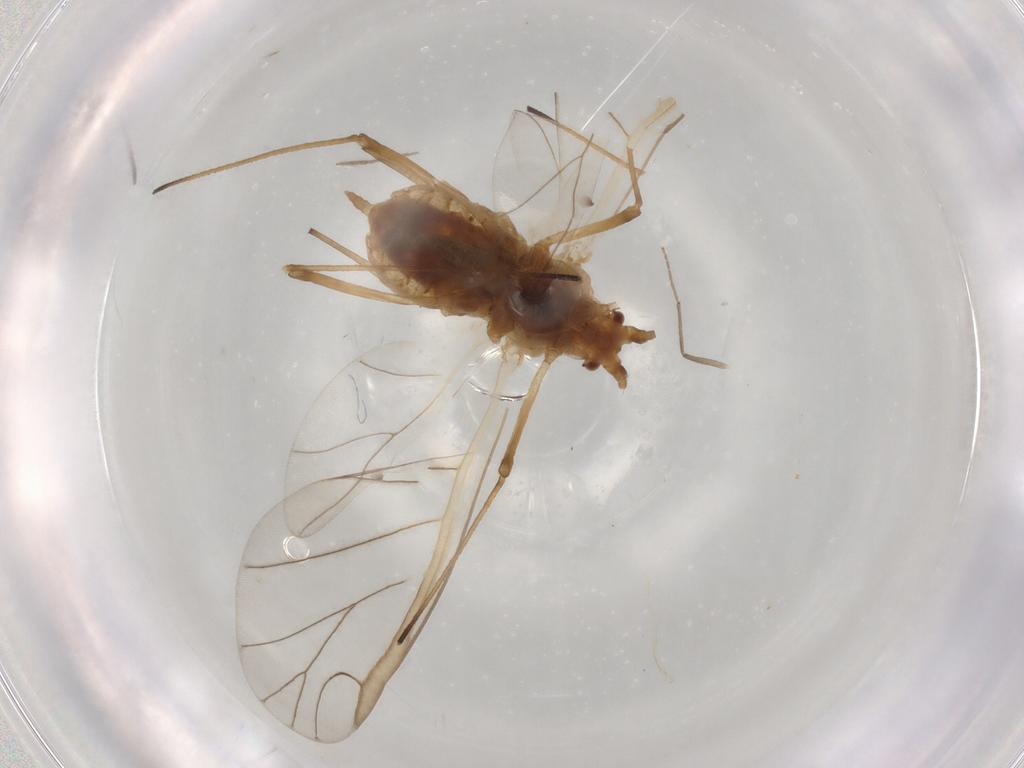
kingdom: Animalia
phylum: Arthropoda
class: Insecta
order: Hemiptera
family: Aphididae
